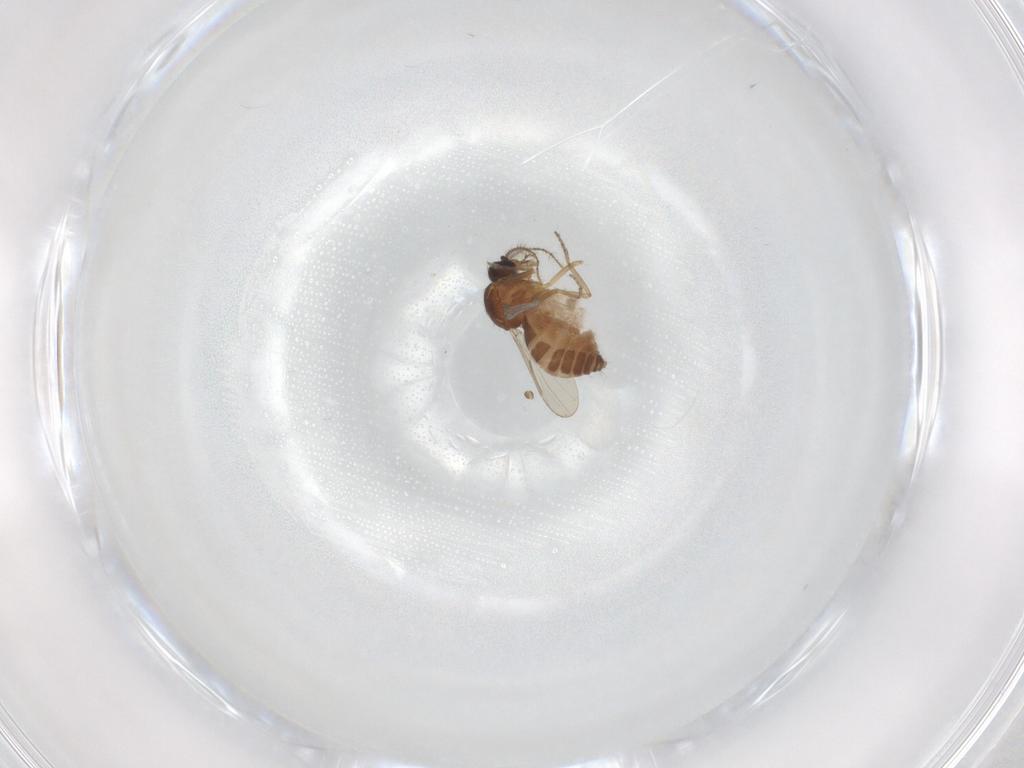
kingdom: Animalia
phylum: Arthropoda
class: Insecta
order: Diptera
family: Ceratopogonidae
